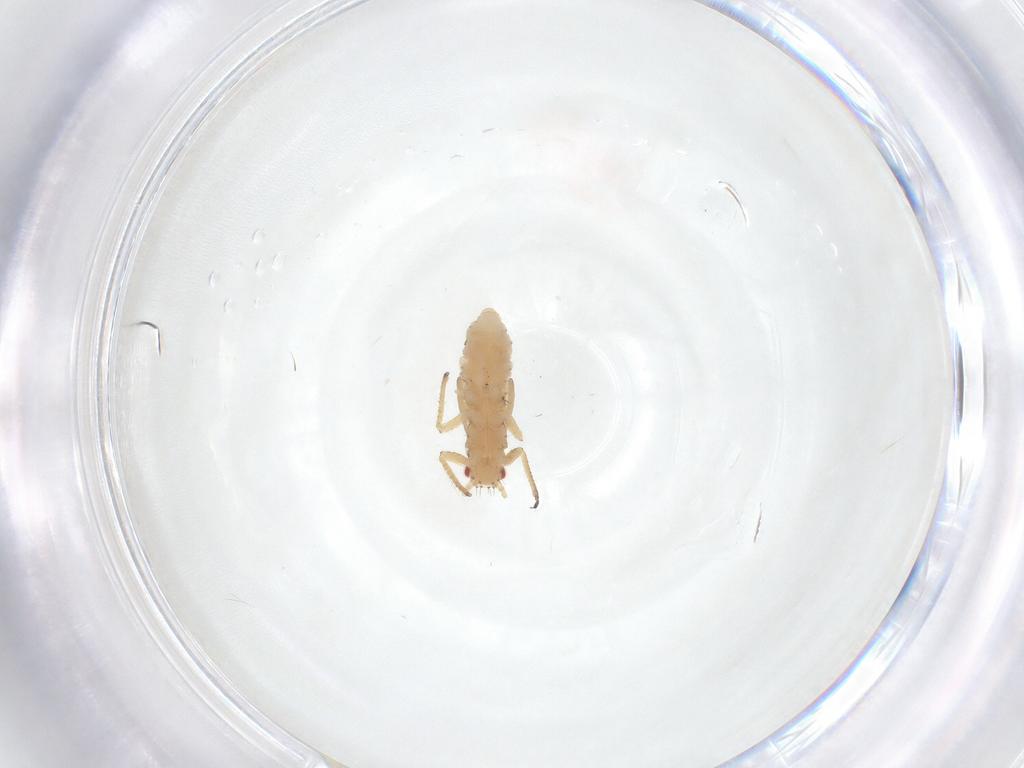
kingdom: Animalia
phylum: Arthropoda
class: Insecta
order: Hemiptera
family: Aphididae
